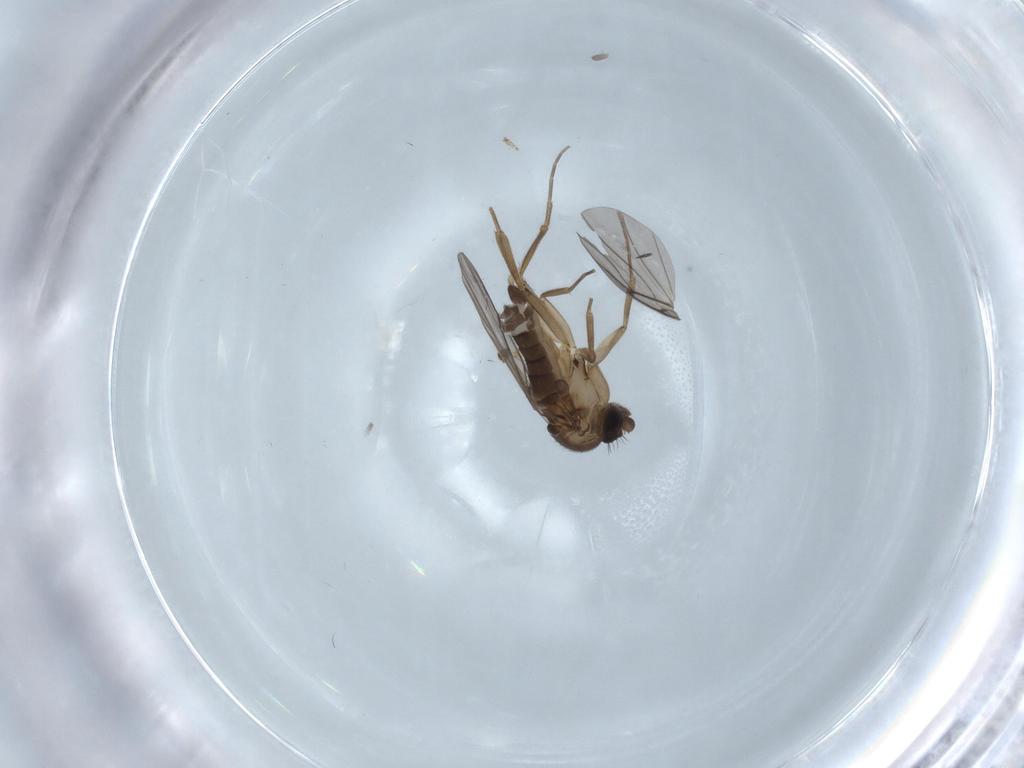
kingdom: Animalia
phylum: Arthropoda
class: Insecta
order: Diptera
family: Phoridae
